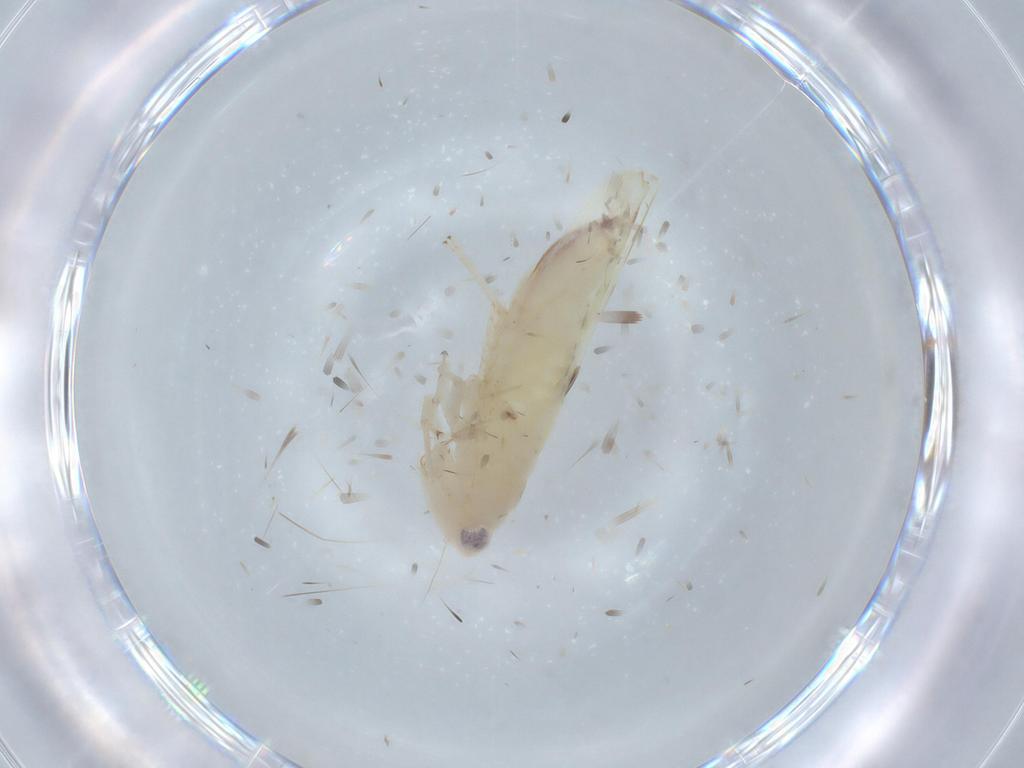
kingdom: Animalia
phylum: Arthropoda
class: Insecta
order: Hemiptera
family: Cicadellidae
